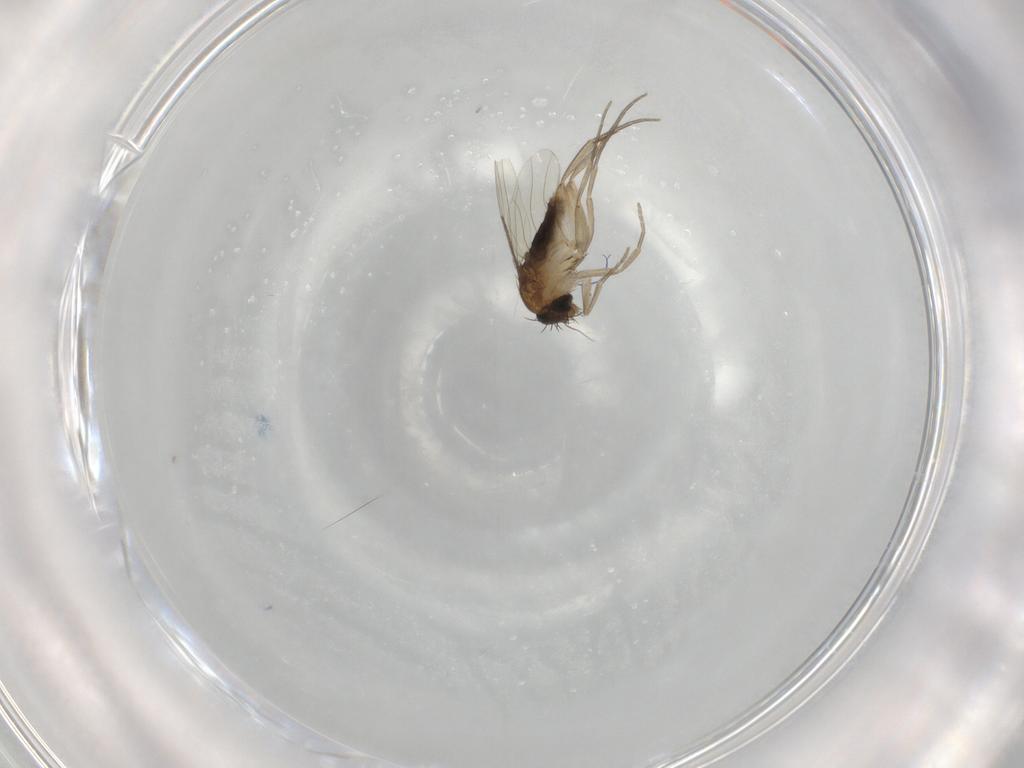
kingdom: Animalia
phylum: Arthropoda
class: Insecta
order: Diptera
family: Phoridae
